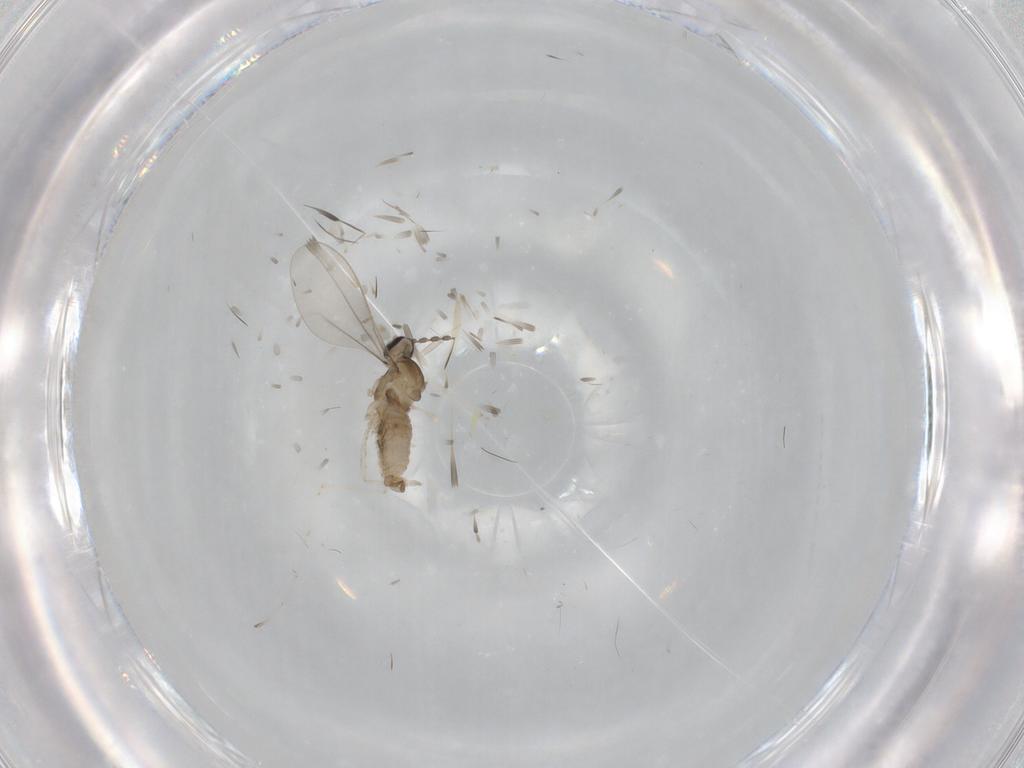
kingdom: Animalia
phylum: Arthropoda
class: Insecta
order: Diptera
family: Cecidomyiidae
